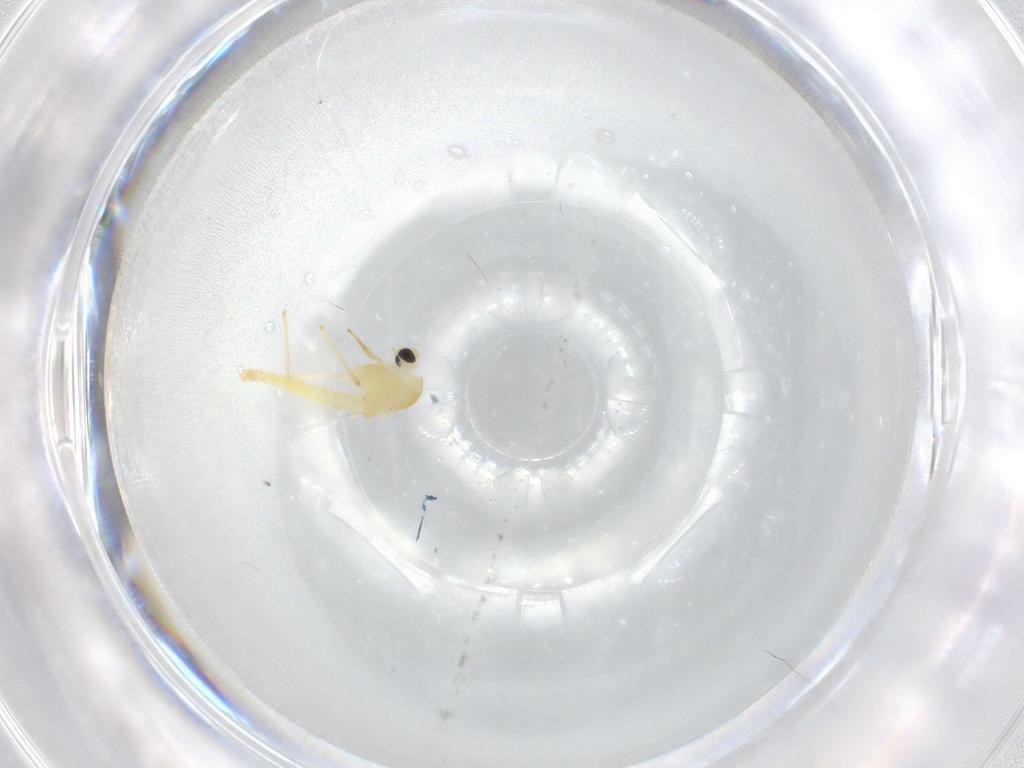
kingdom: Animalia
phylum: Arthropoda
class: Insecta
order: Diptera
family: Chironomidae
